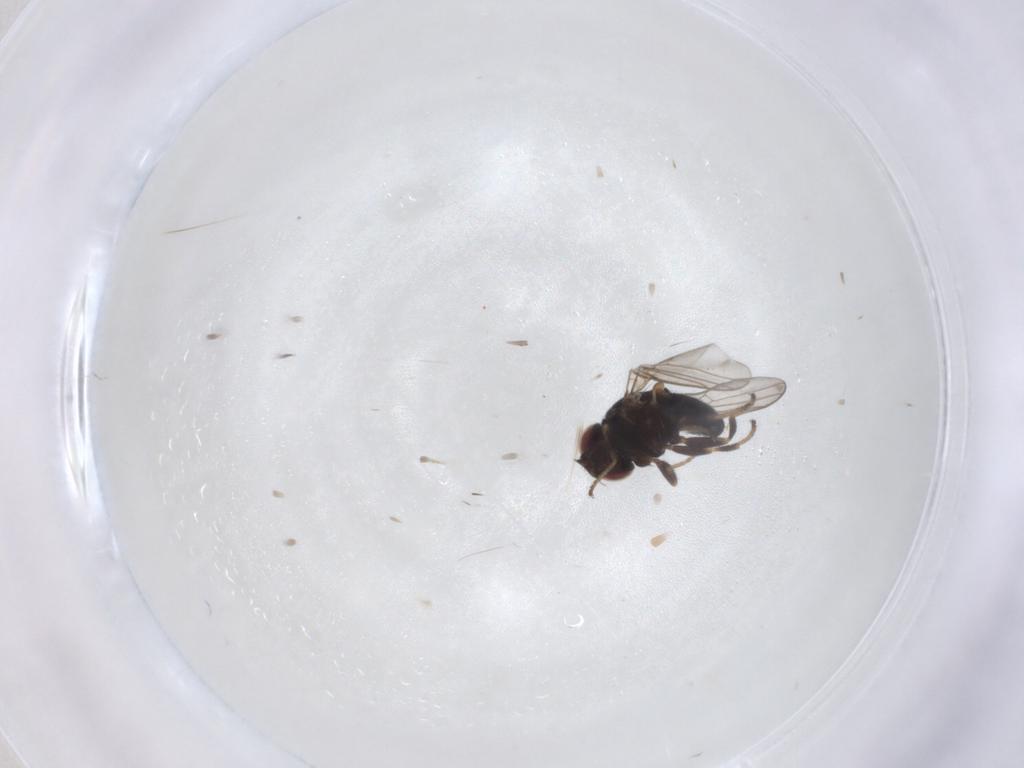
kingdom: Animalia
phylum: Arthropoda
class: Insecta
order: Diptera
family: Chloropidae
